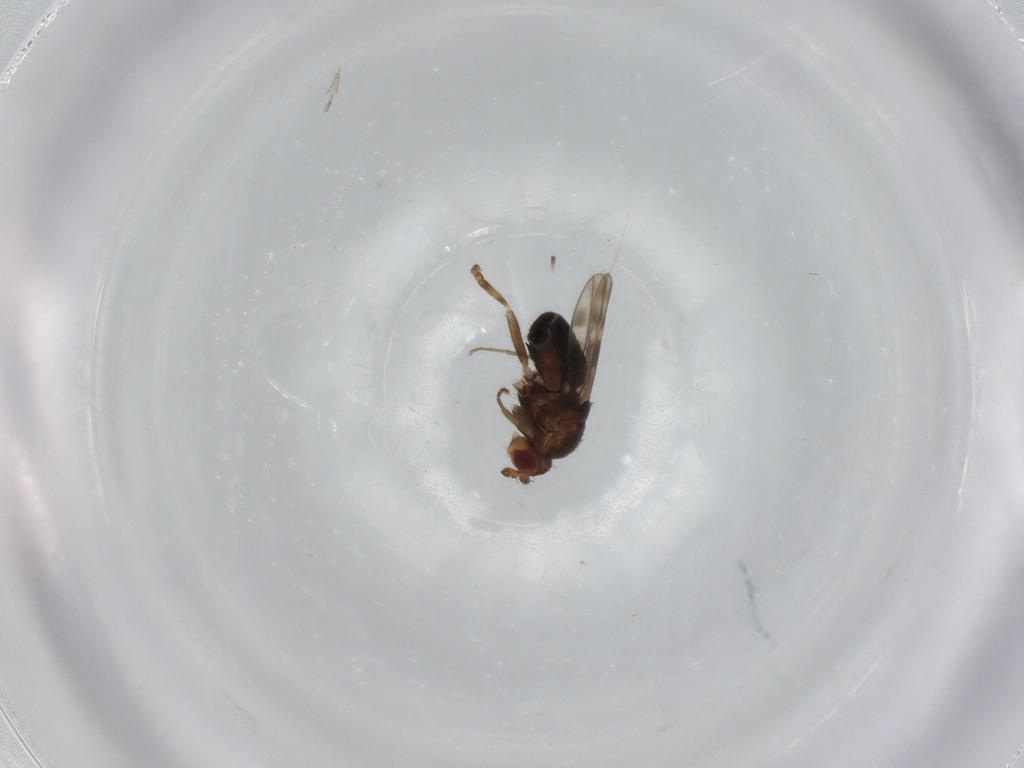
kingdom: Animalia
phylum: Arthropoda
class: Insecta
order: Diptera
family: Sphaeroceridae
